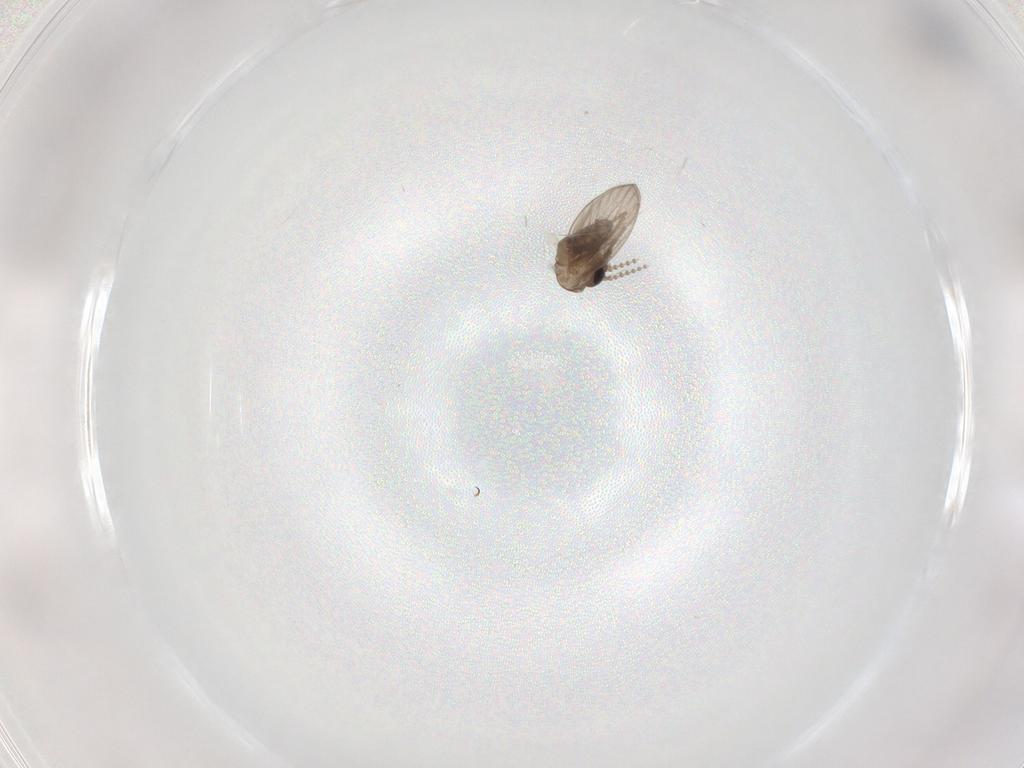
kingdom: Animalia
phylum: Arthropoda
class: Insecta
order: Diptera
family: Psychodidae
